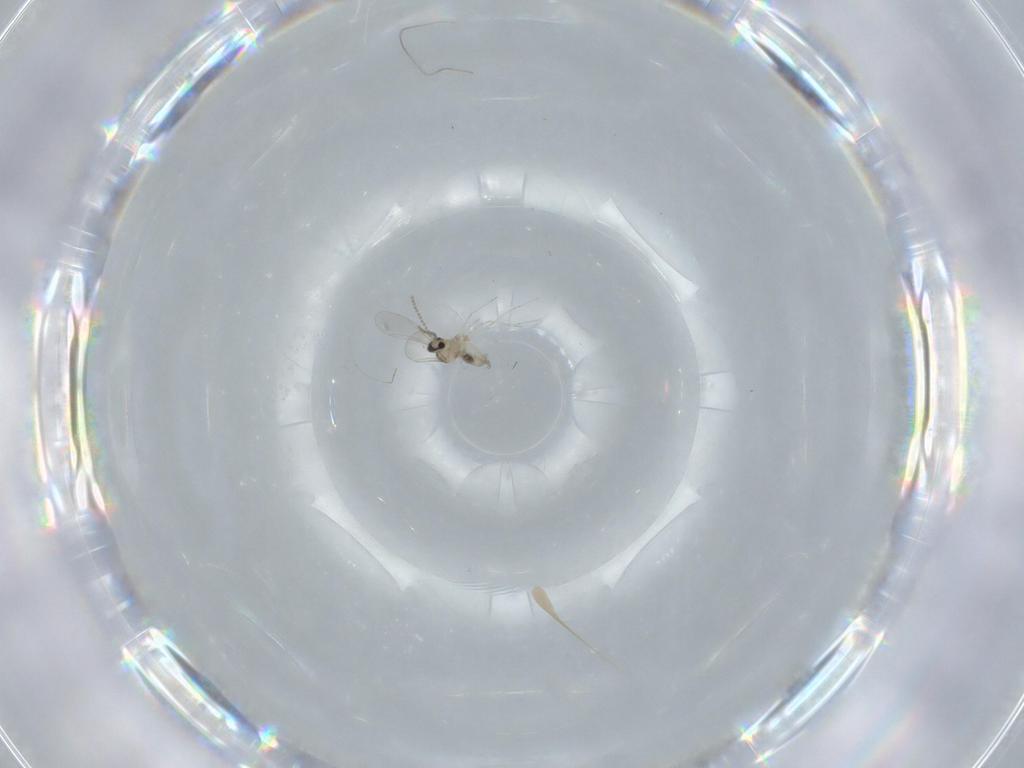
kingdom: Animalia
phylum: Arthropoda
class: Insecta
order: Diptera
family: Cecidomyiidae
